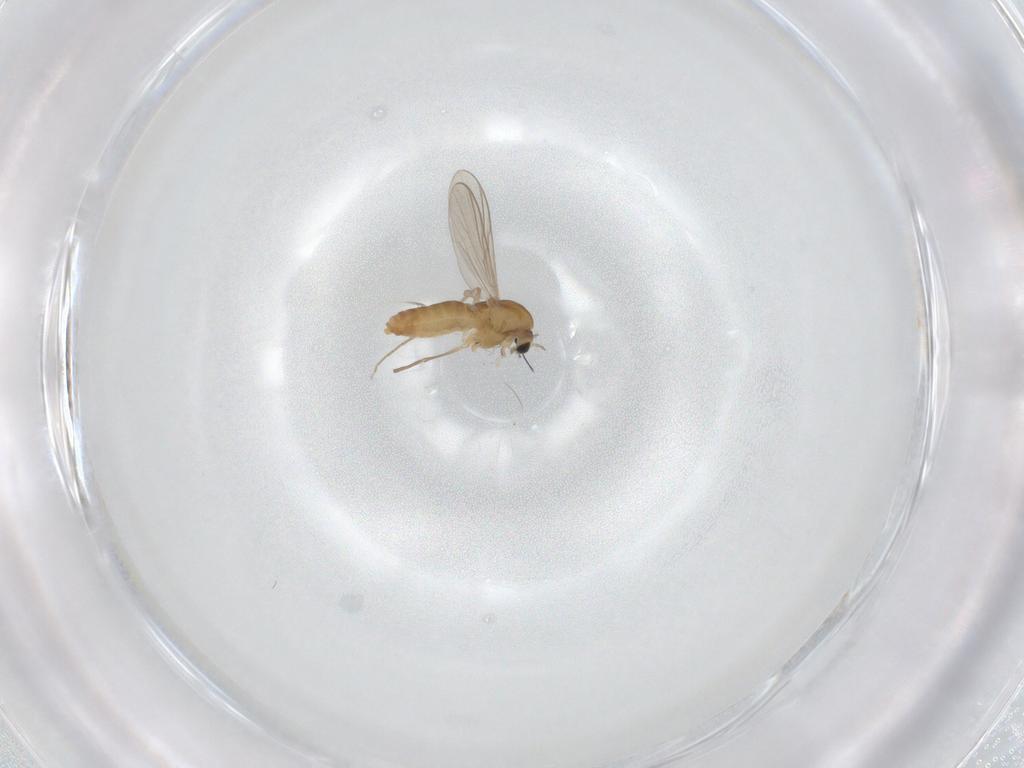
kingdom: Animalia
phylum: Arthropoda
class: Insecta
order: Diptera
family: Chironomidae
